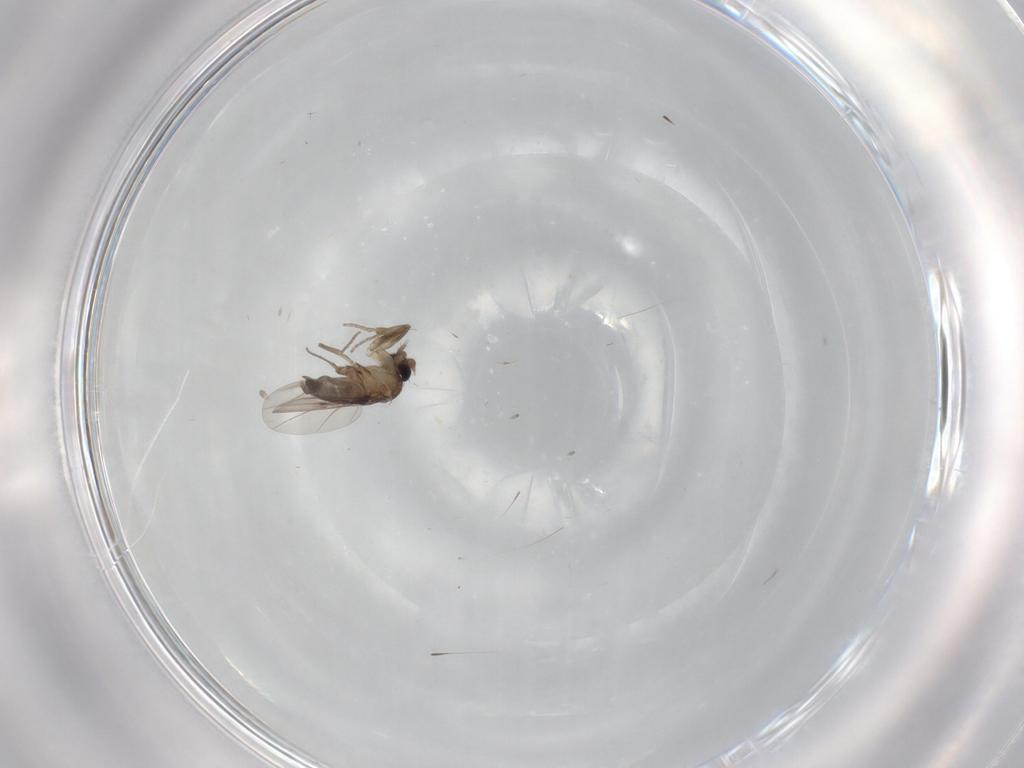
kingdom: Animalia
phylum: Arthropoda
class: Insecta
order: Diptera
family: Phoridae
